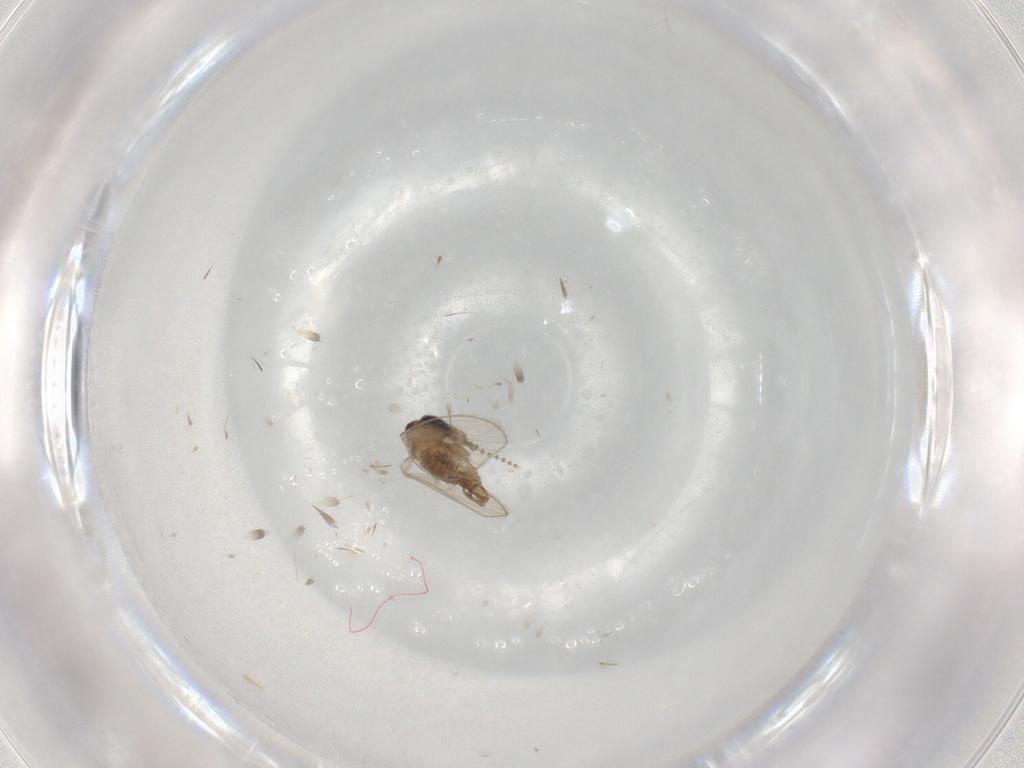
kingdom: Animalia
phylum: Arthropoda
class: Insecta
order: Diptera
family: Psychodidae
